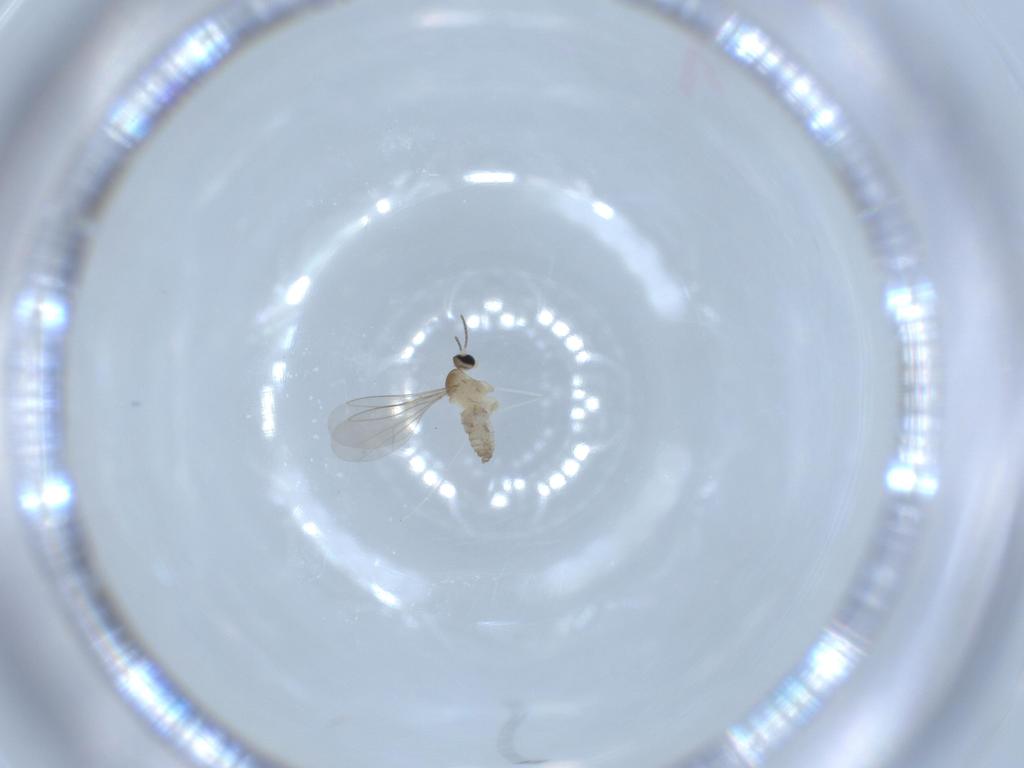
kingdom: Animalia
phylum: Arthropoda
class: Insecta
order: Diptera
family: Cecidomyiidae
